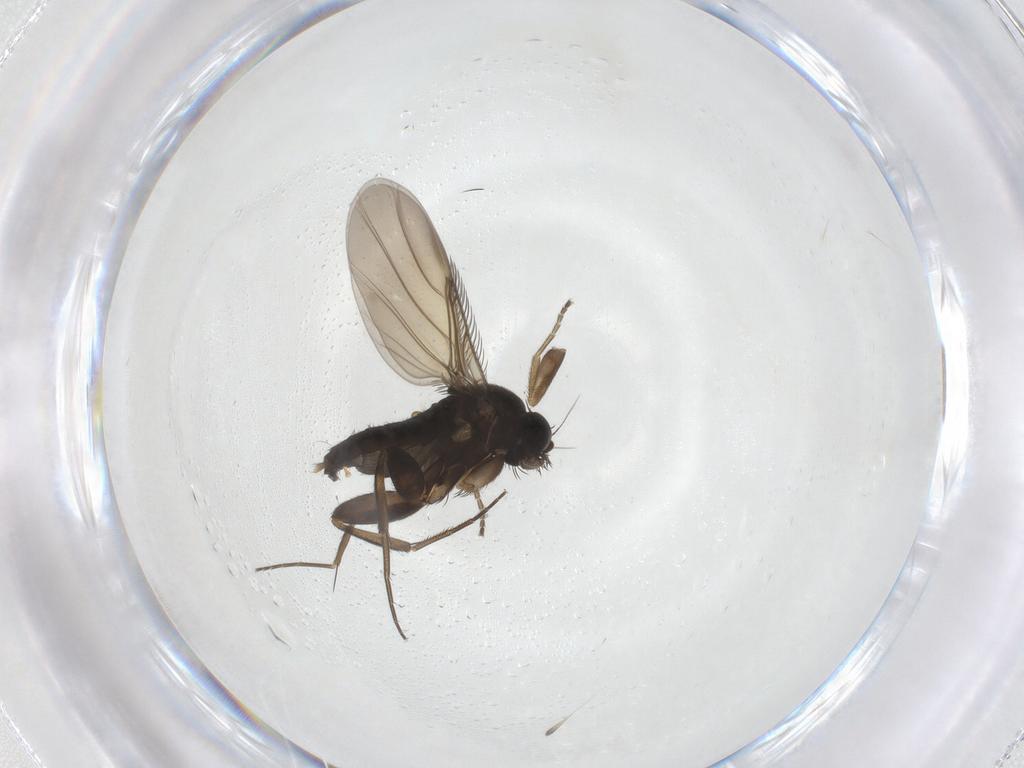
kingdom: Animalia
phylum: Arthropoda
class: Insecta
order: Diptera
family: Phoridae
